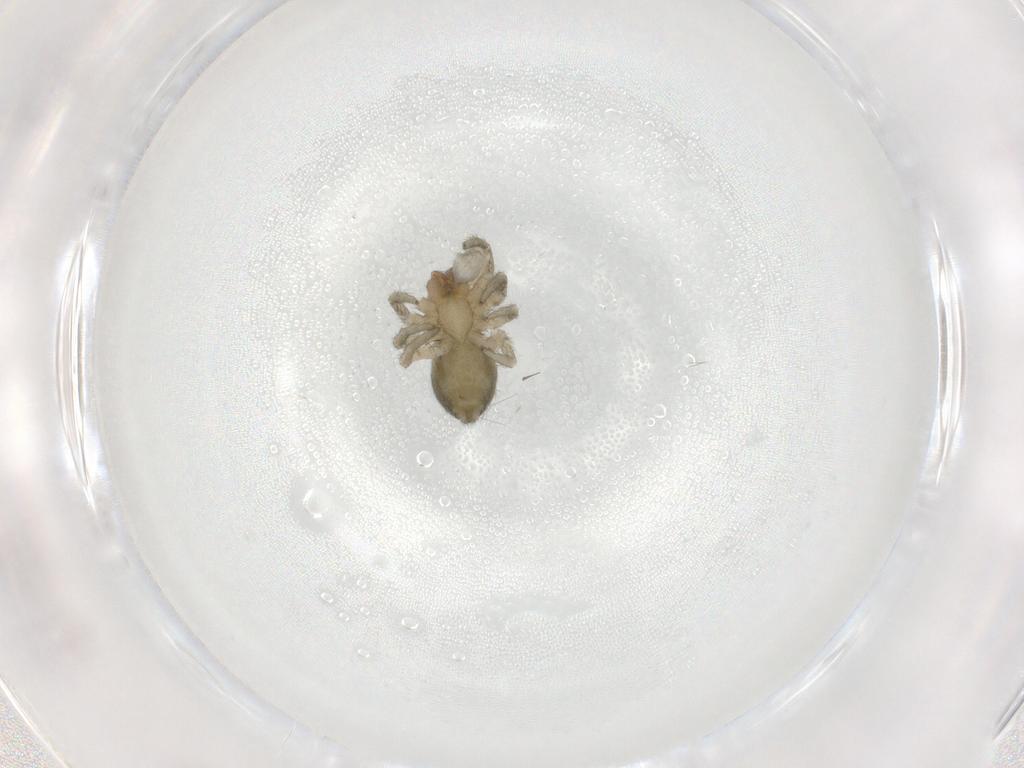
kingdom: Animalia
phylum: Arthropoda
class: Arachnida
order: Araneae
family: Anyphaenidae
